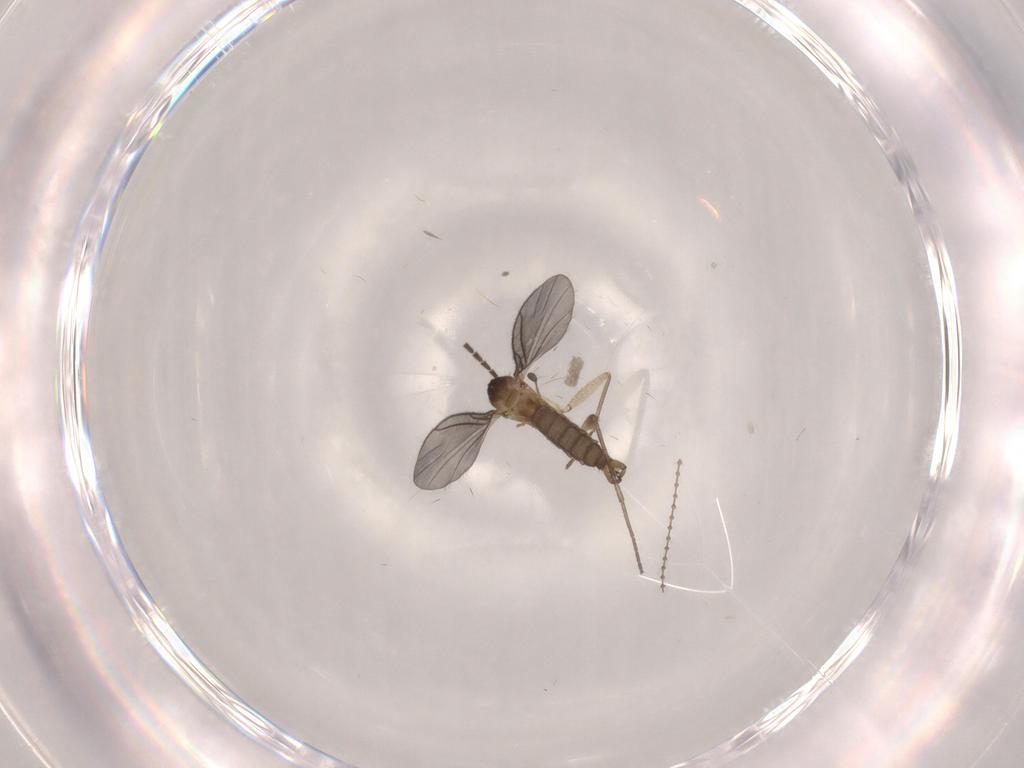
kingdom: Animalia
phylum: Arthropoda
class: Insecta
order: Diptera
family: Sciaridae
